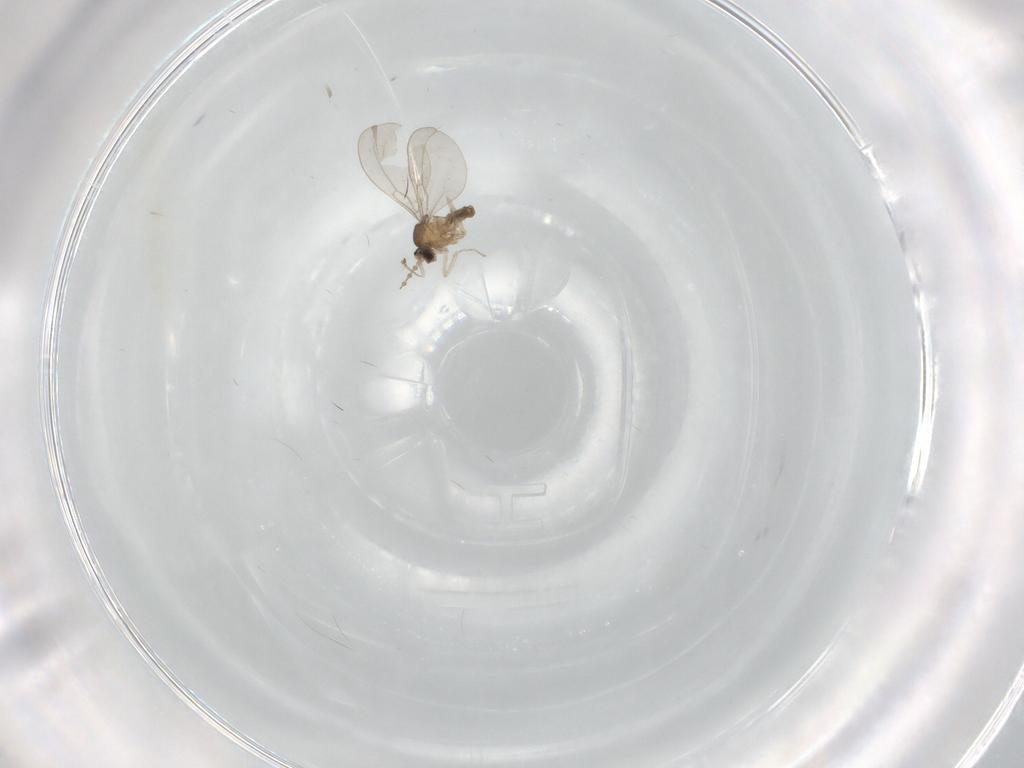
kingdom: Animalia
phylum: Arthropoda
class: Insecta
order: Diptera
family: Cecidomyiidae
